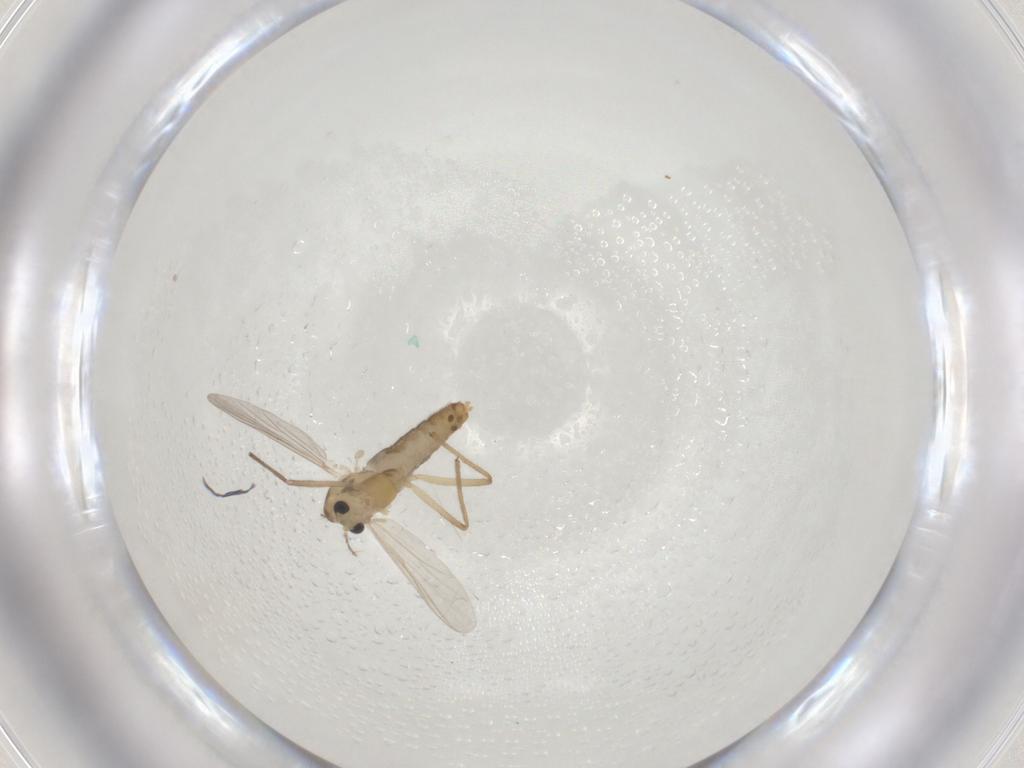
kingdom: Animalia
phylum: Arthropoda
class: Insecta
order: Diptera
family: Chironomidae
